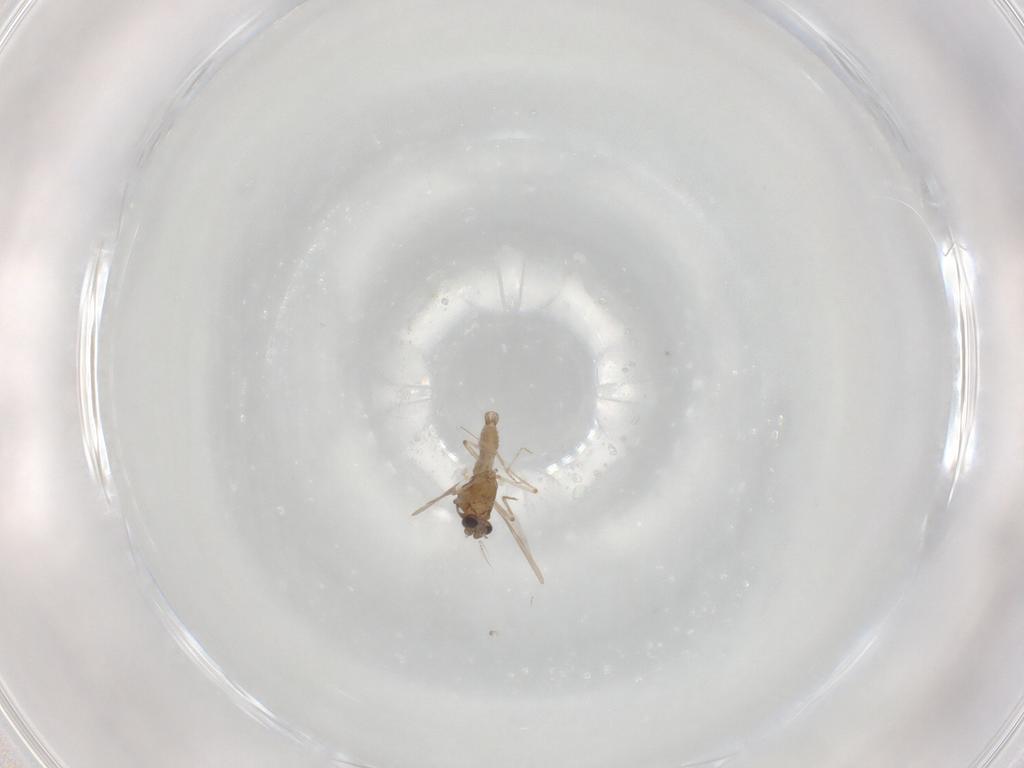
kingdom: Animalia
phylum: Arthropoda
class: Insecta
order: Diptera
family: Cecidomyiidae
